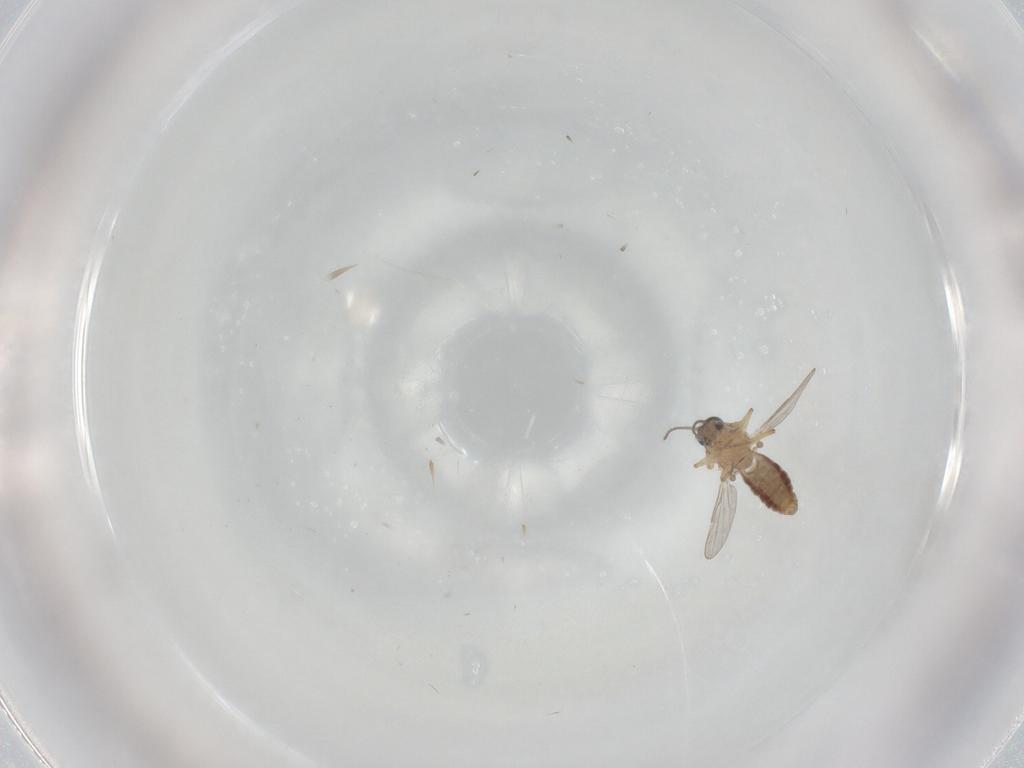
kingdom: Animalia
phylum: Arthropoda
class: Insecta
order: Diptera
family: Ceratopogonidae
